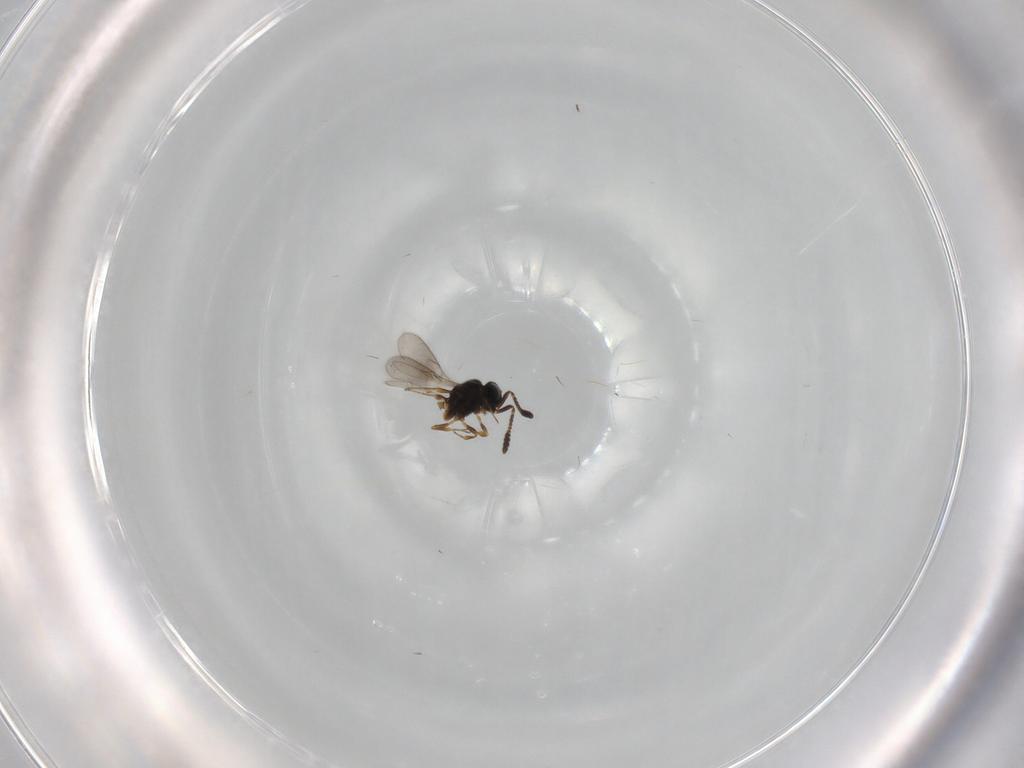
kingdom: Animalia
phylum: Arthropoda
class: Insecta
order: Hymenoptera
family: Scelionidae
